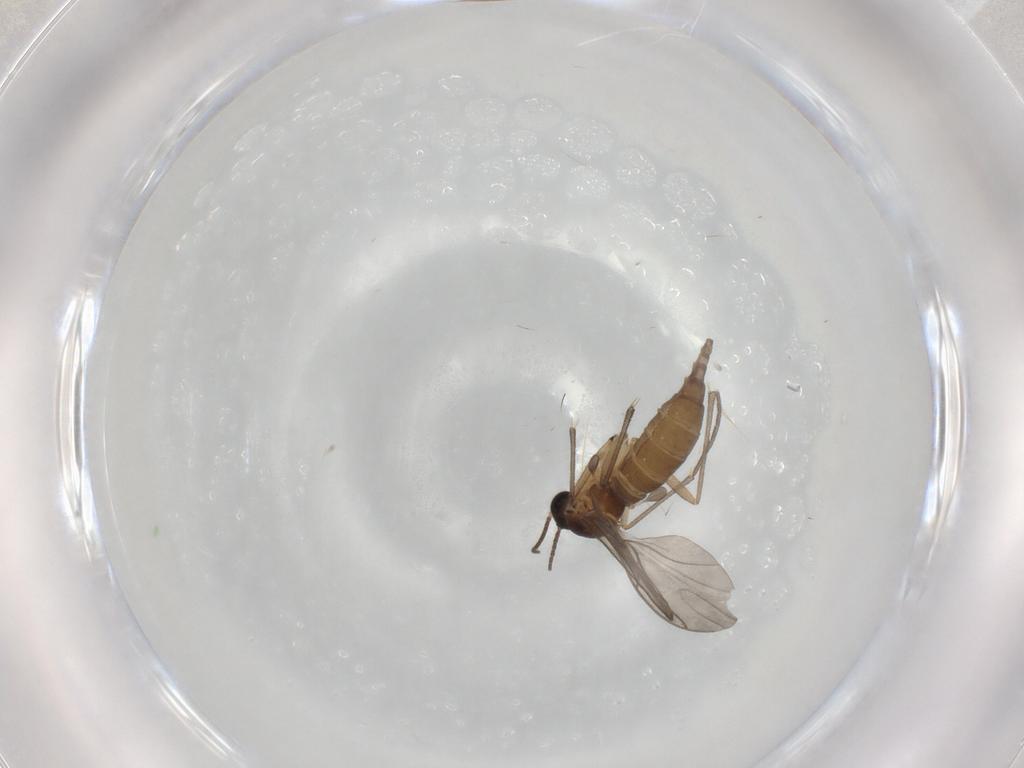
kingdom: Animalia
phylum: Arthropoda
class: Insecta
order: Diptera
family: Sciaridae
